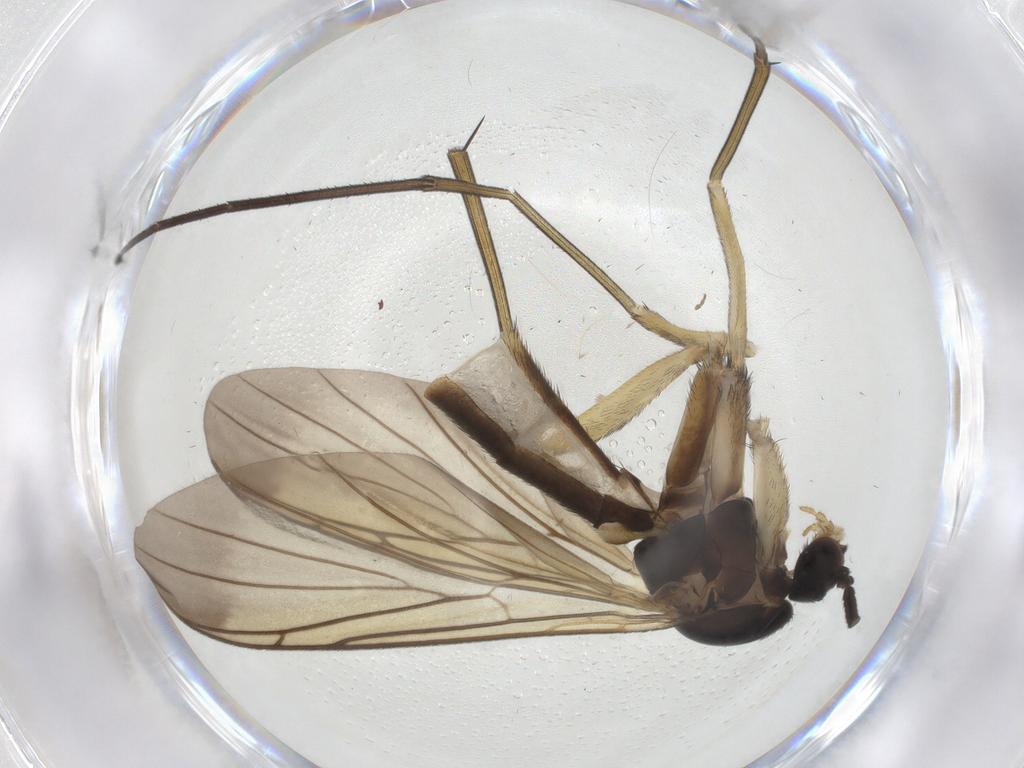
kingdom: Animalia
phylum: Arthropoda
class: Insecta
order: Diptera
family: Keroplatidae
